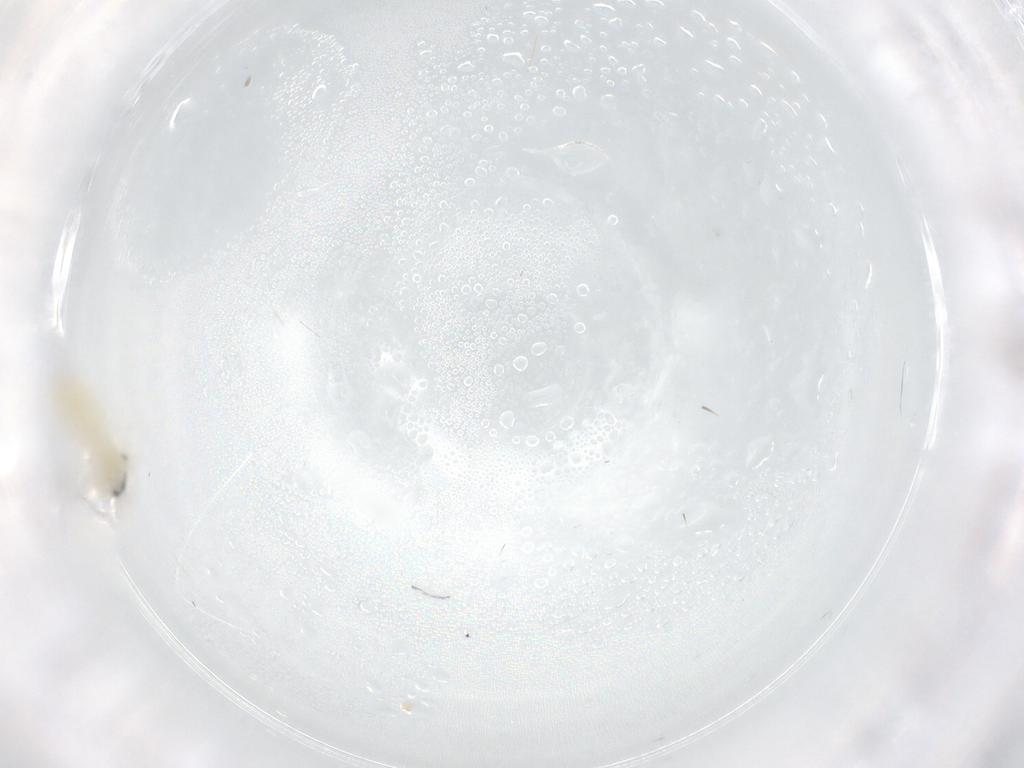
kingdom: Animalia
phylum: Arthropoda
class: Insecta
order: Diptera
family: Cecidomyiidae
